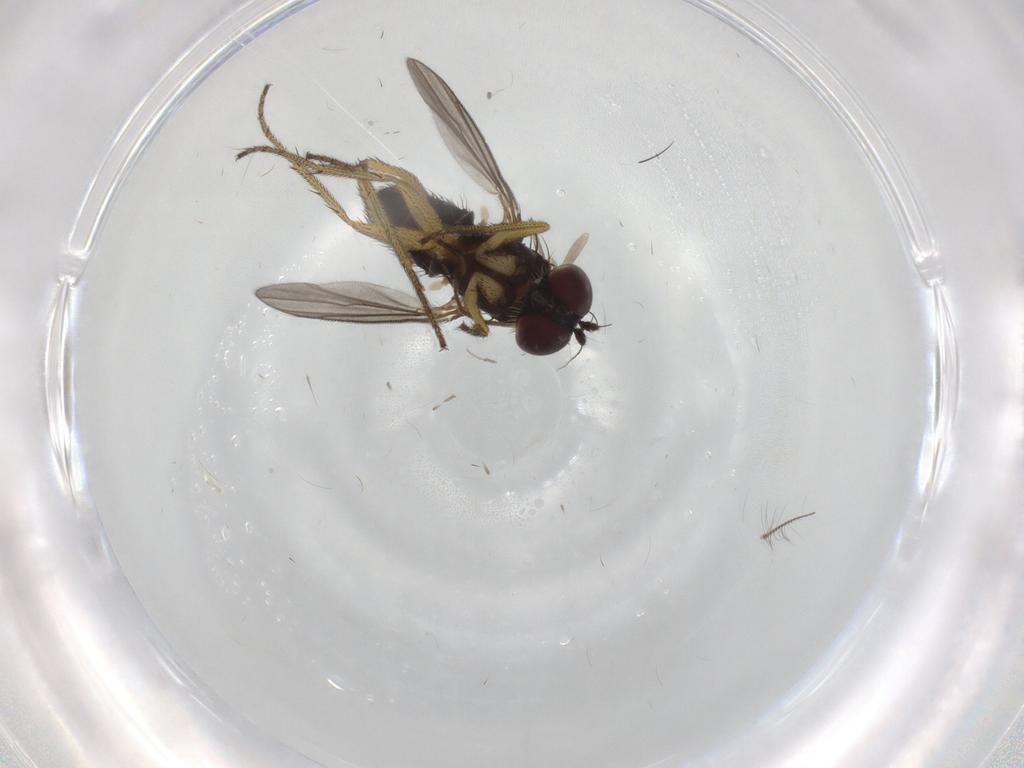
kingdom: Animalia
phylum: Arthropoda
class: Insecta
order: Diptera
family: Chironomidae
